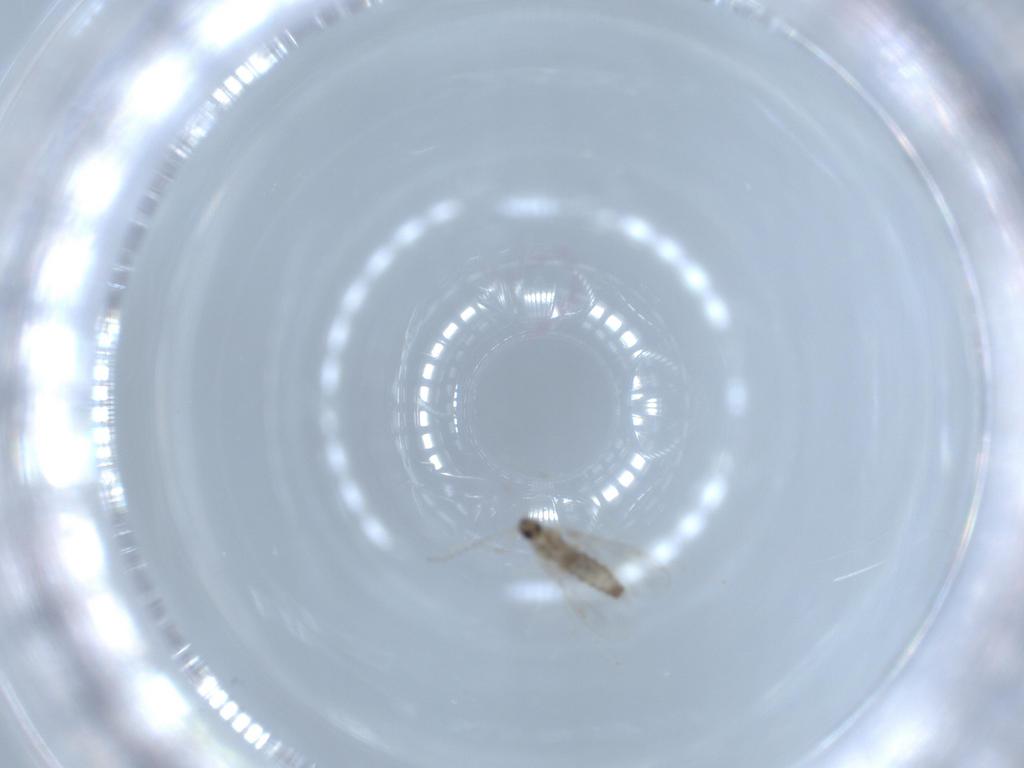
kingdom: Animalia
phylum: Arthropoda
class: Insecta
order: Diptera
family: Cecidomyiidae
